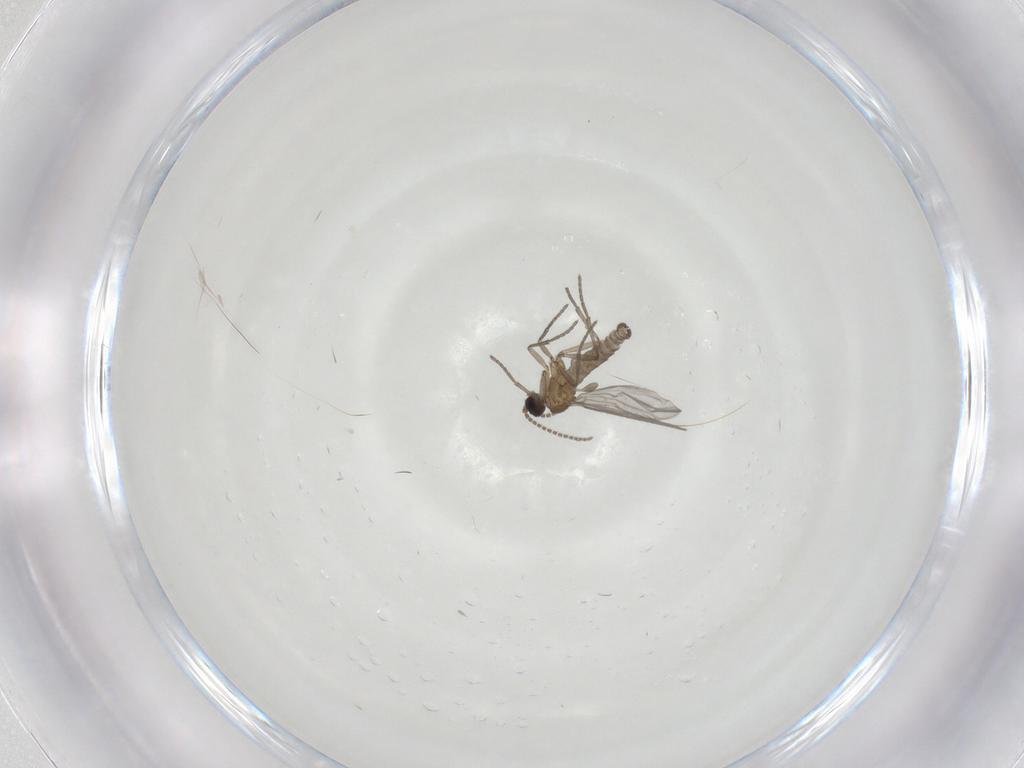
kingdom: Animalia
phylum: Arthropoda
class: Insecta
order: Diptera
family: Sciaridae
